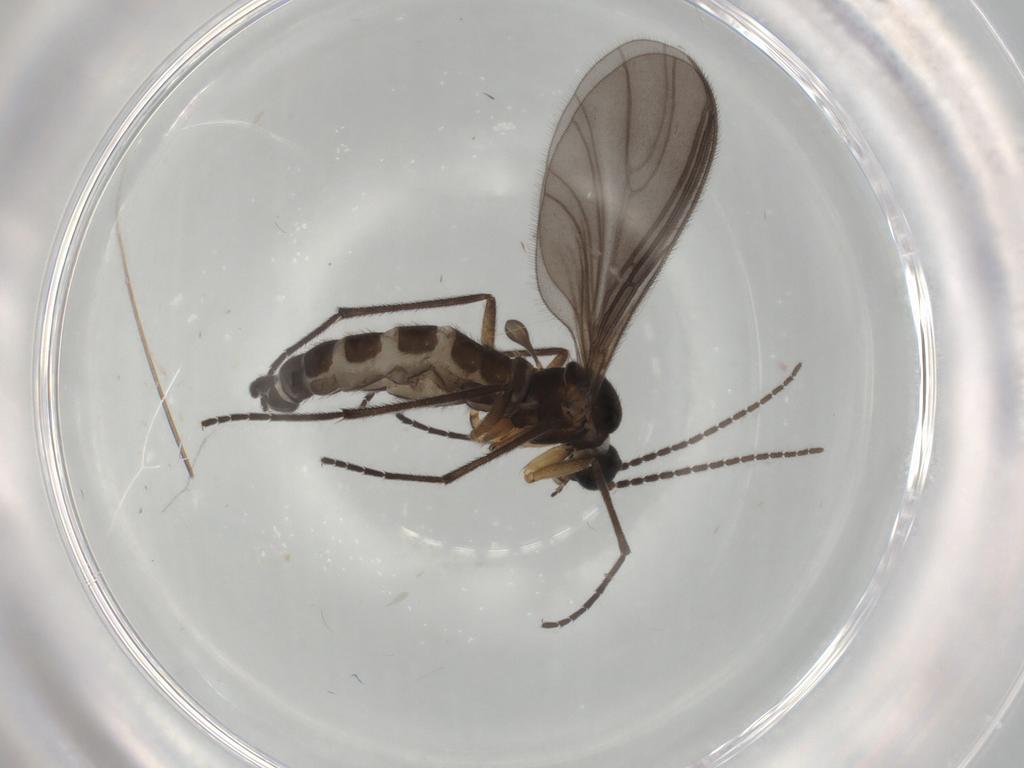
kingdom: Animalia
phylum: Arthropoda
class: Insecta
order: Diptera
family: Sciaridae
